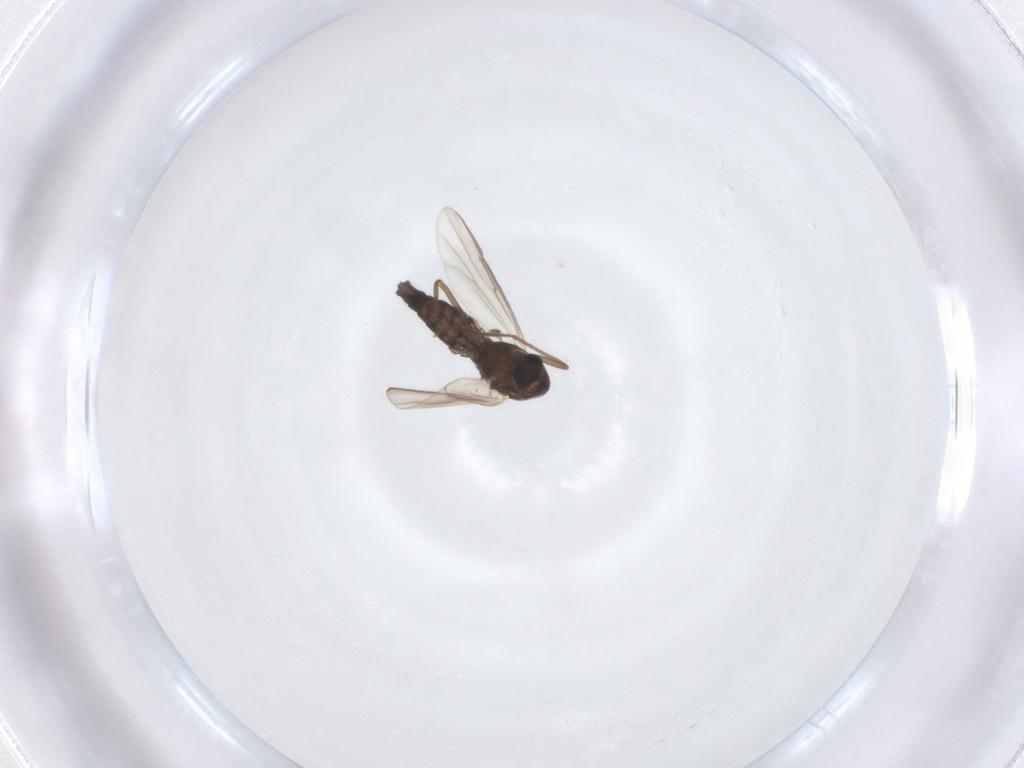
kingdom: Animalia
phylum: Arthropoda
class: Insecta
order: Diptera
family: Chironomidae
